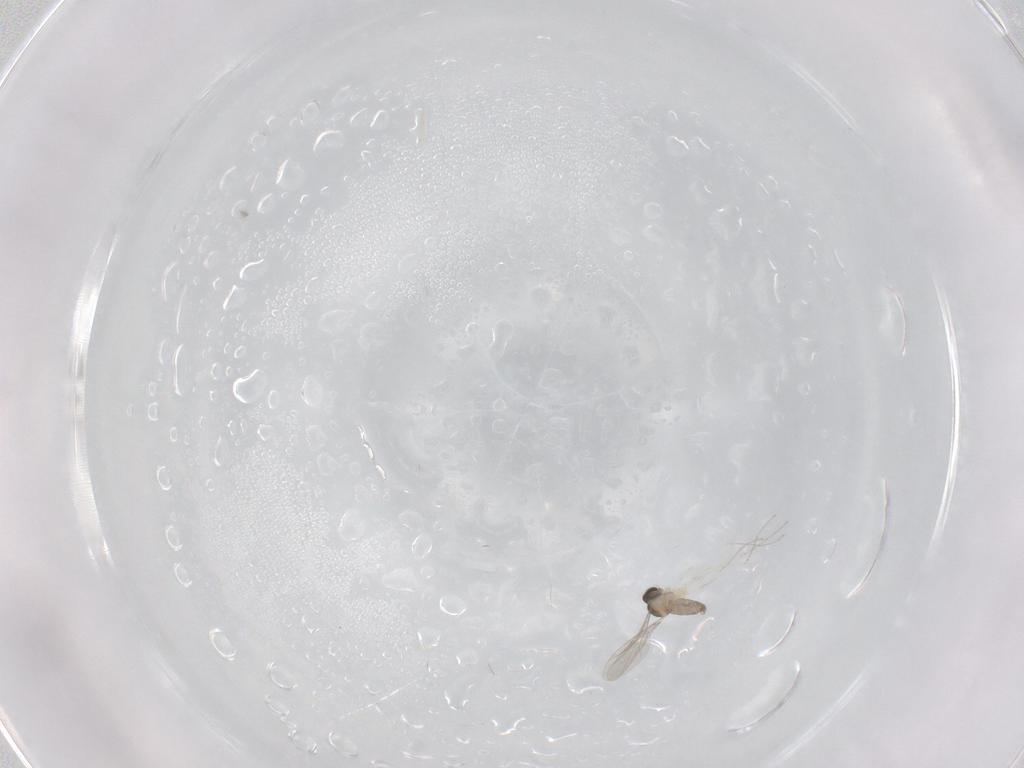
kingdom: Animalia
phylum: Arthropoda
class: Insecta
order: Diptera
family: Cecidomyiidae
